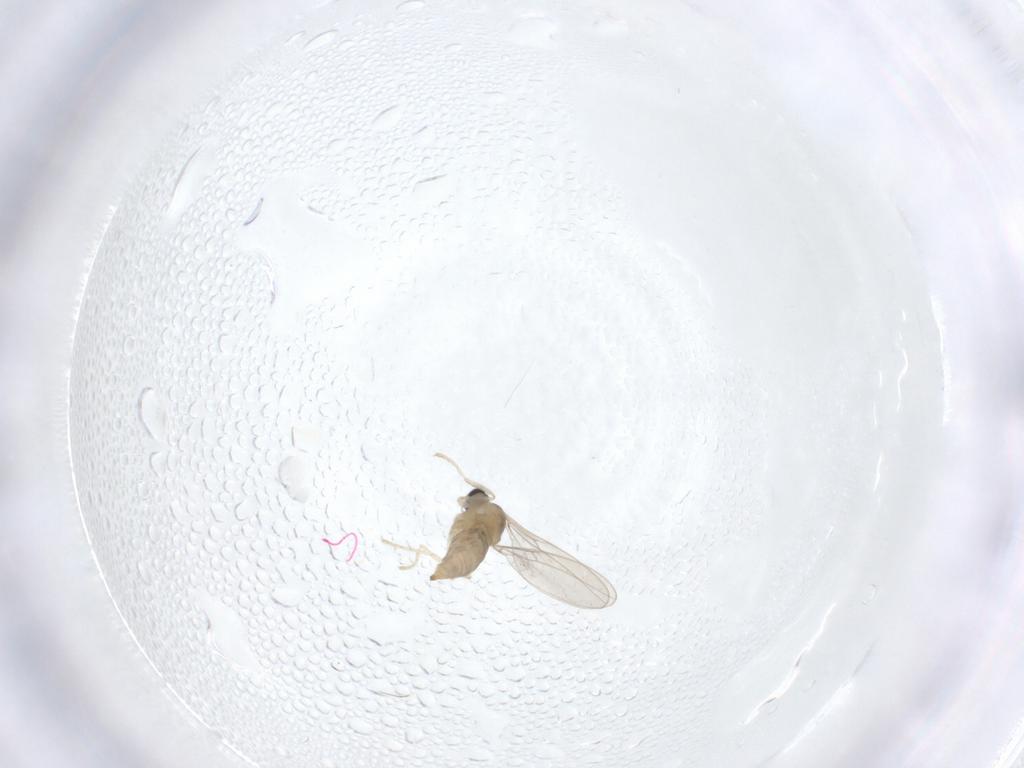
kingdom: Animalia
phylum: Arthropoda
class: Insecta
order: Diptera
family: Phoridae
